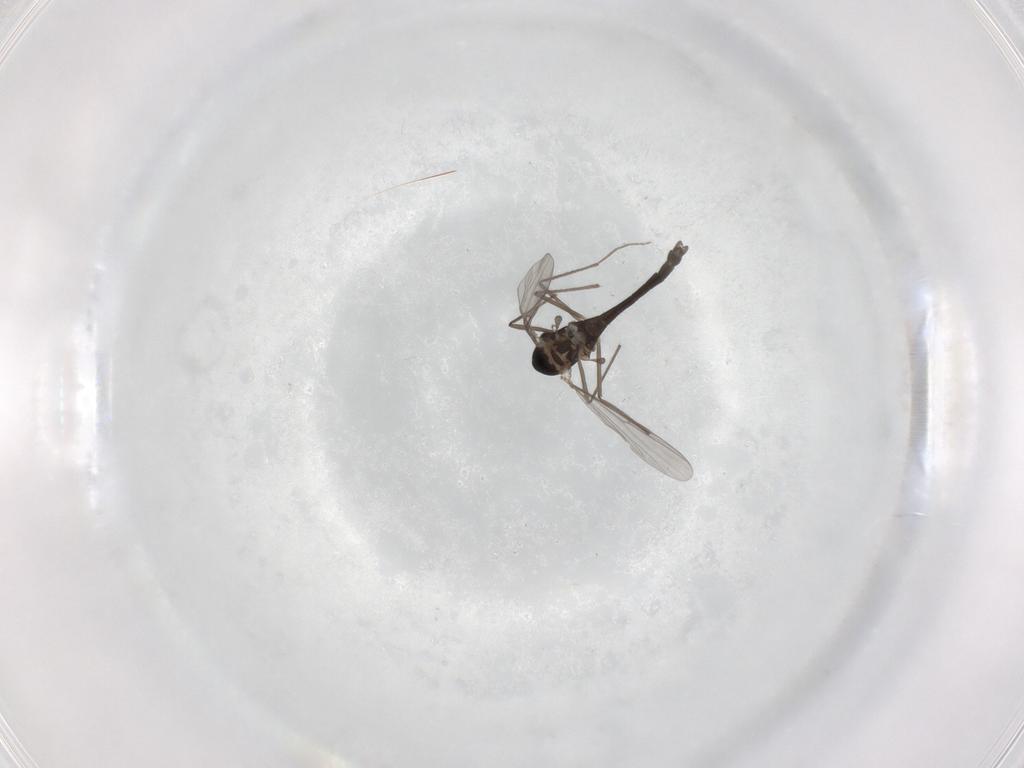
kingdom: Animalia
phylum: Arthropoda
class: Insecta
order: Diptera
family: Chironomidae
